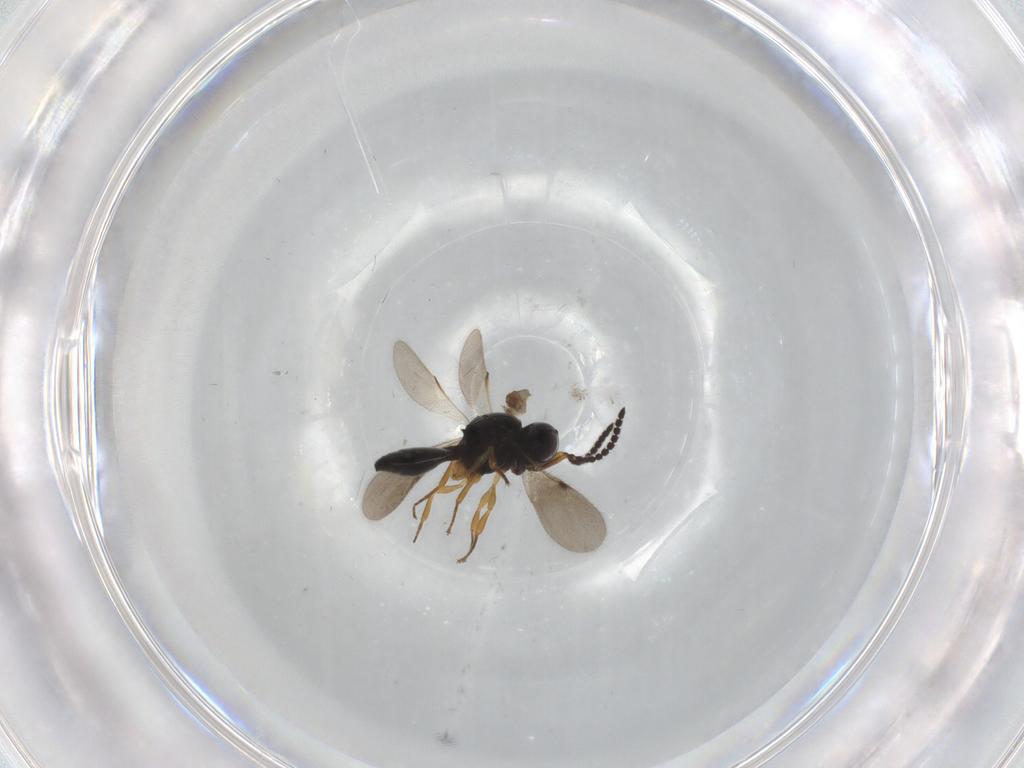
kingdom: Animalia
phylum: Arthropoda
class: Insecta
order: Hymenoptera
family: Scelionidae
